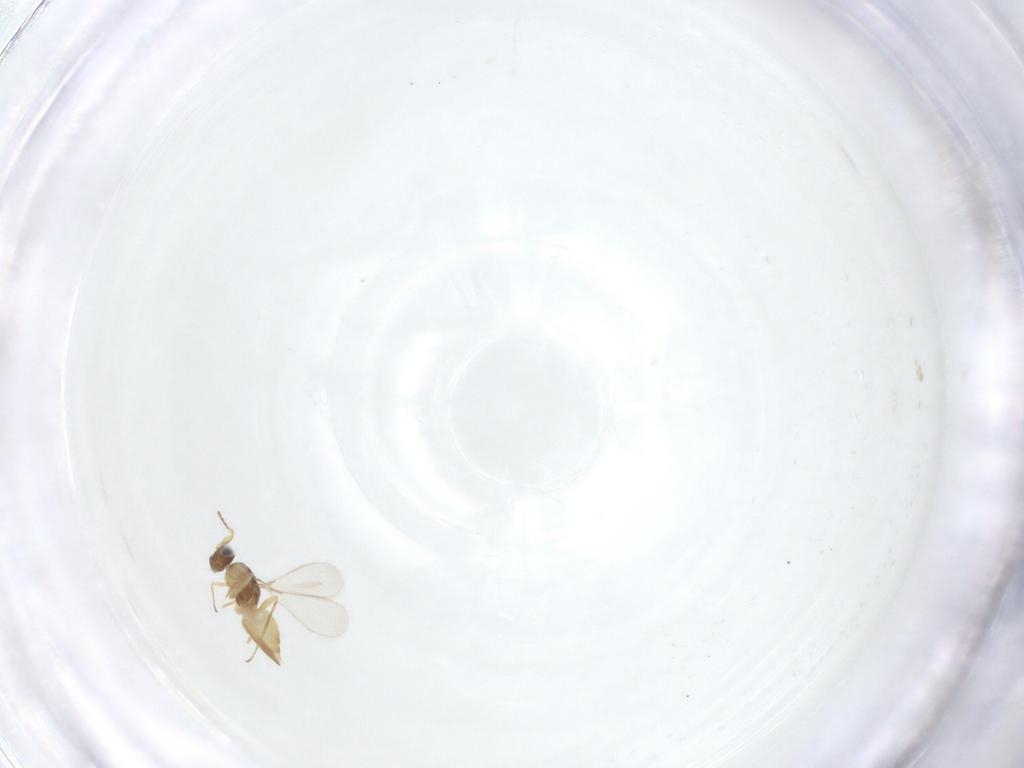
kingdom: Animalia
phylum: Arthropoda
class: Insecta
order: Hymenoptera
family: Mymaridae
